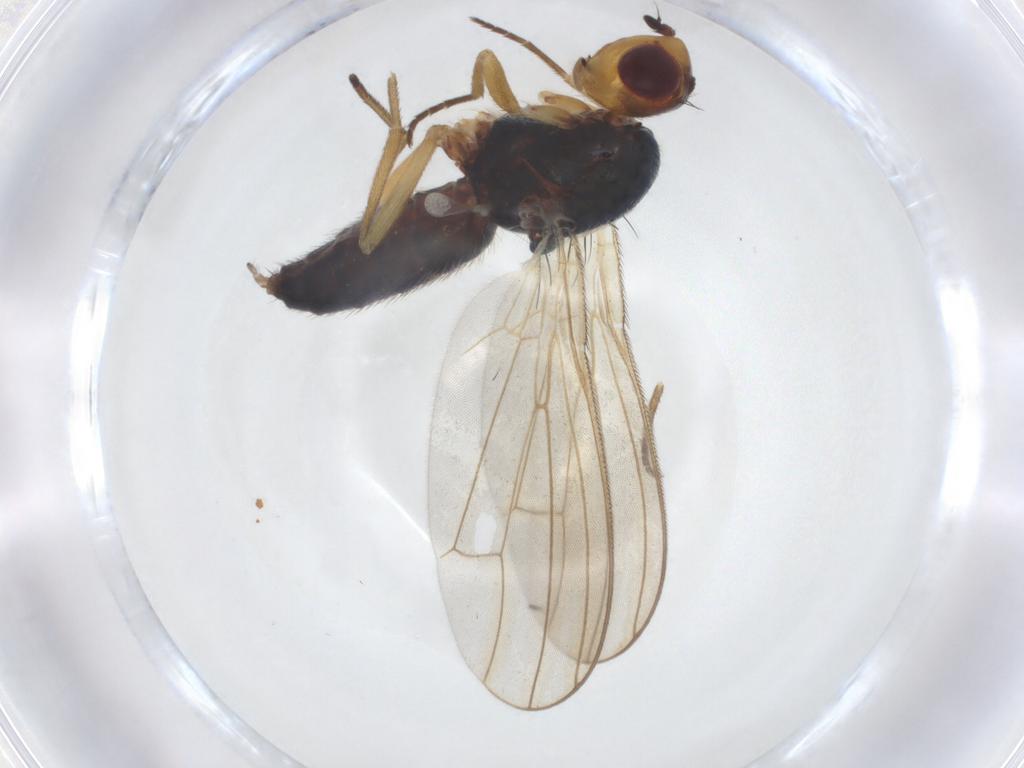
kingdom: Animalia
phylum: Arthropoda
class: Insecta
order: Diptera
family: Sciaridae
